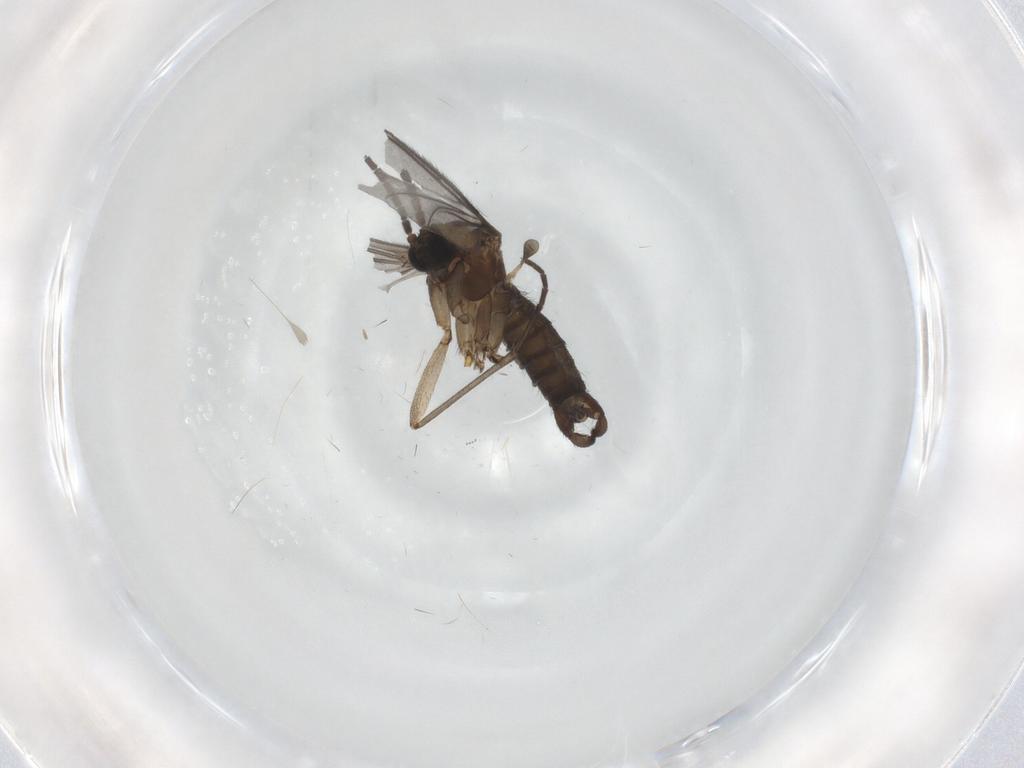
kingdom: Animalia
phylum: Arthropoda
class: Insecta
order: Diptera
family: Sciaridae
